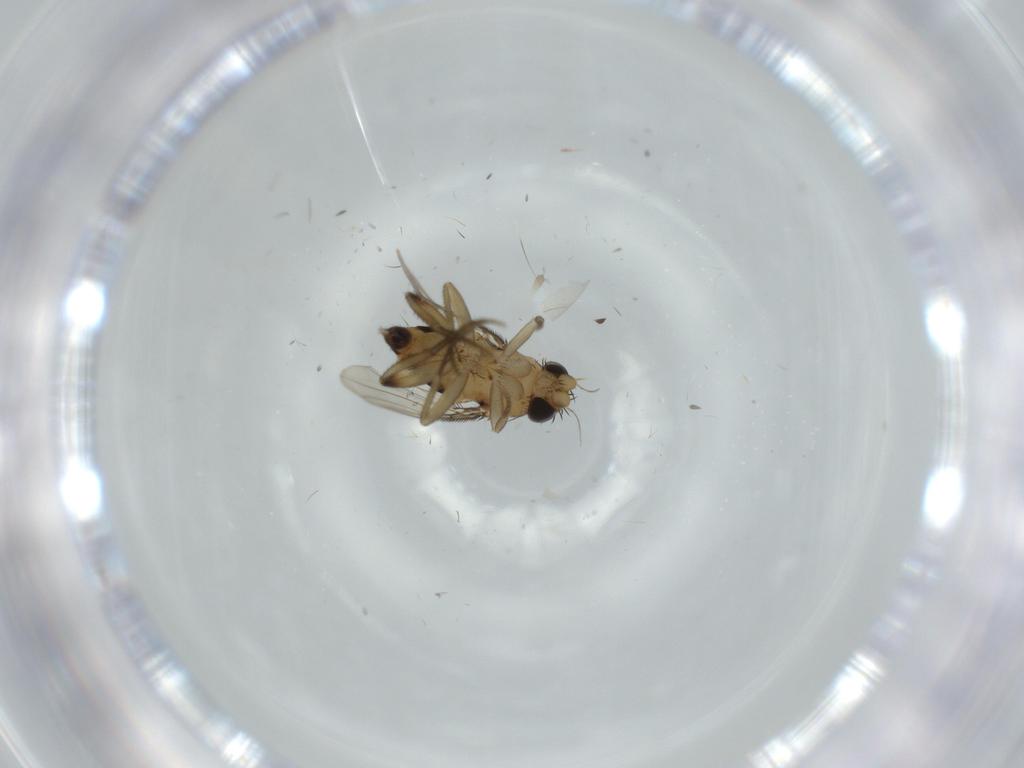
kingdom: Animalia
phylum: Arthropoda
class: Insecta
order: Diptera
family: Phoridae
